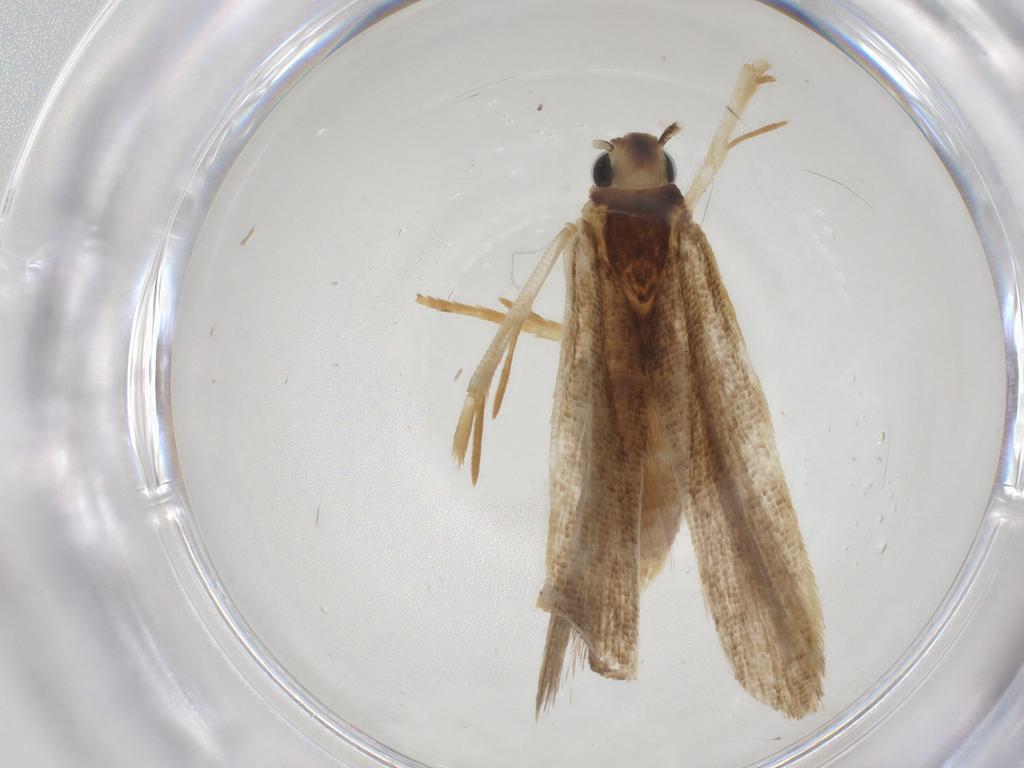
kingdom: Animalia
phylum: Arthropoda
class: Insecta
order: Lepidoptera
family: Gelechiidae
